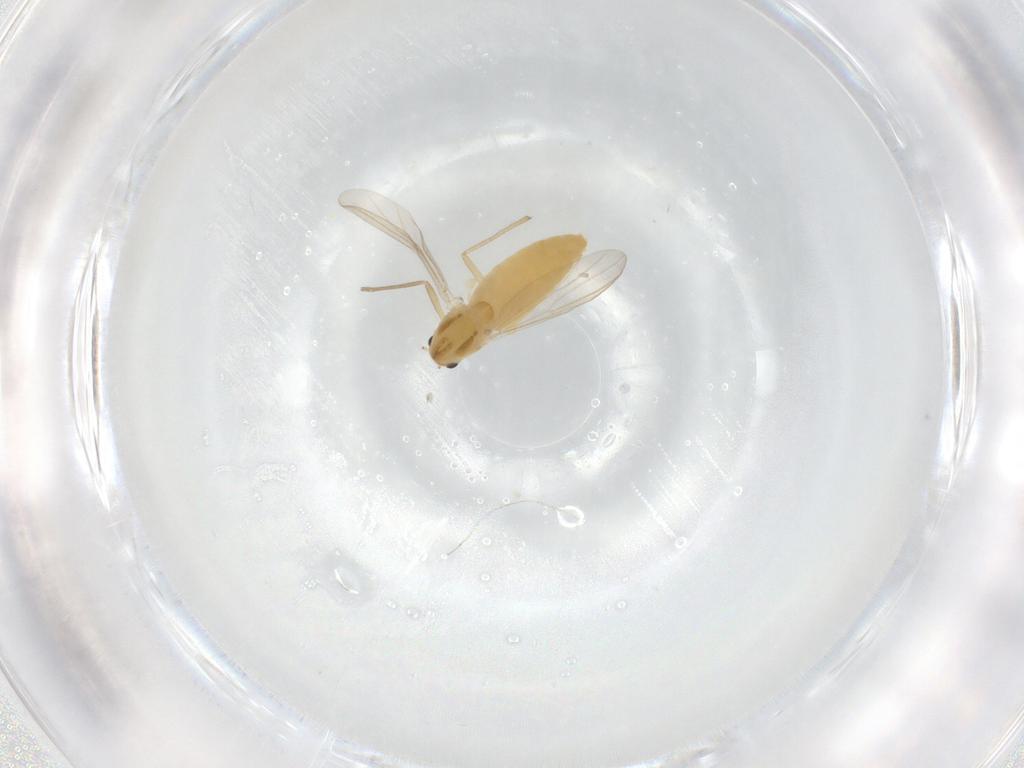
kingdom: Animalia
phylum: Arthropoda
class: Insecta
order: Diptera
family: Chironomidae
